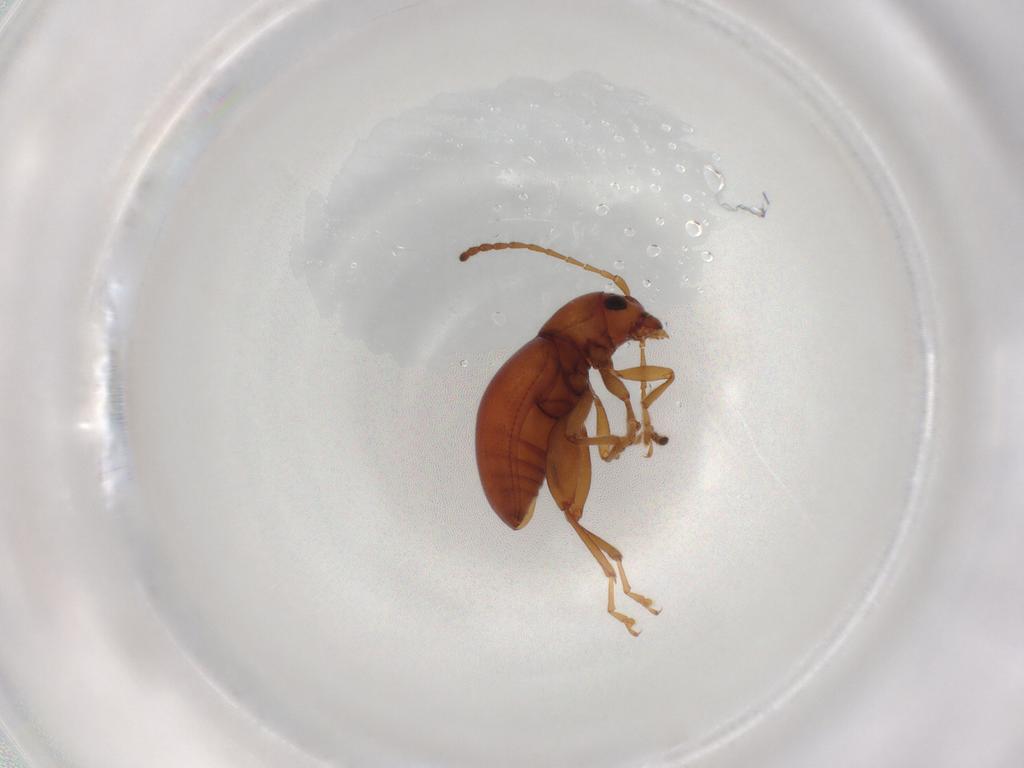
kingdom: Animalia
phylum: Arthropoda
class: Insecta
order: Coleoptera
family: Chrysomelidae
